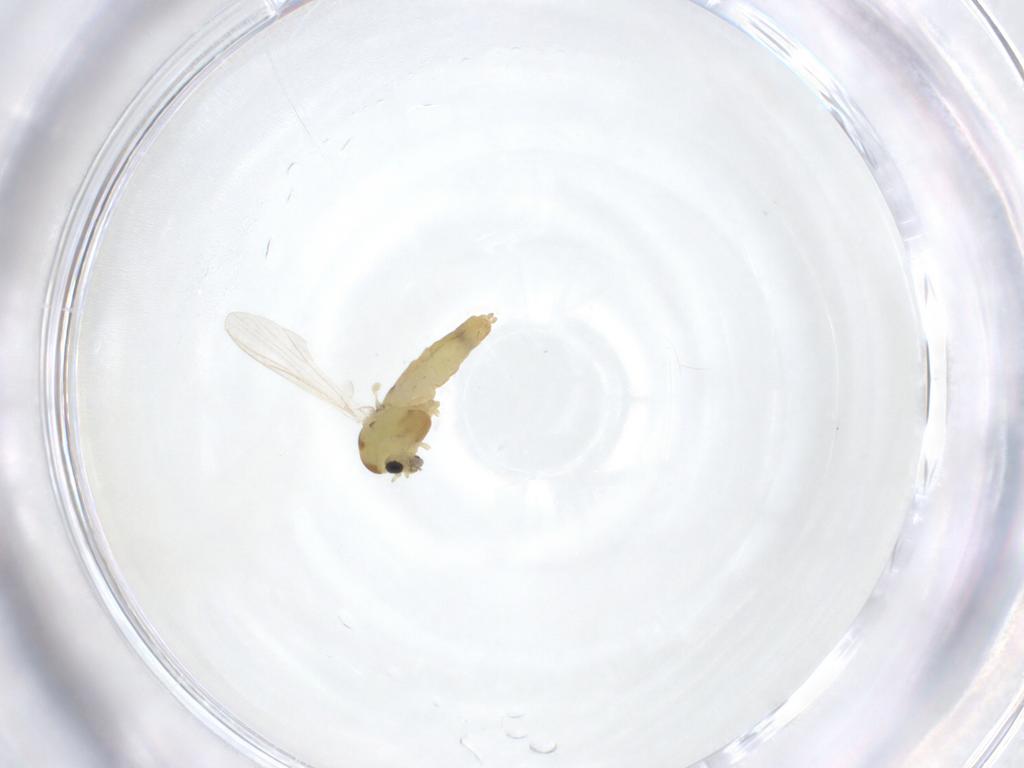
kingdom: Animalia
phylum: Arthropoda
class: Insecta
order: Diptera
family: Chironomidae
